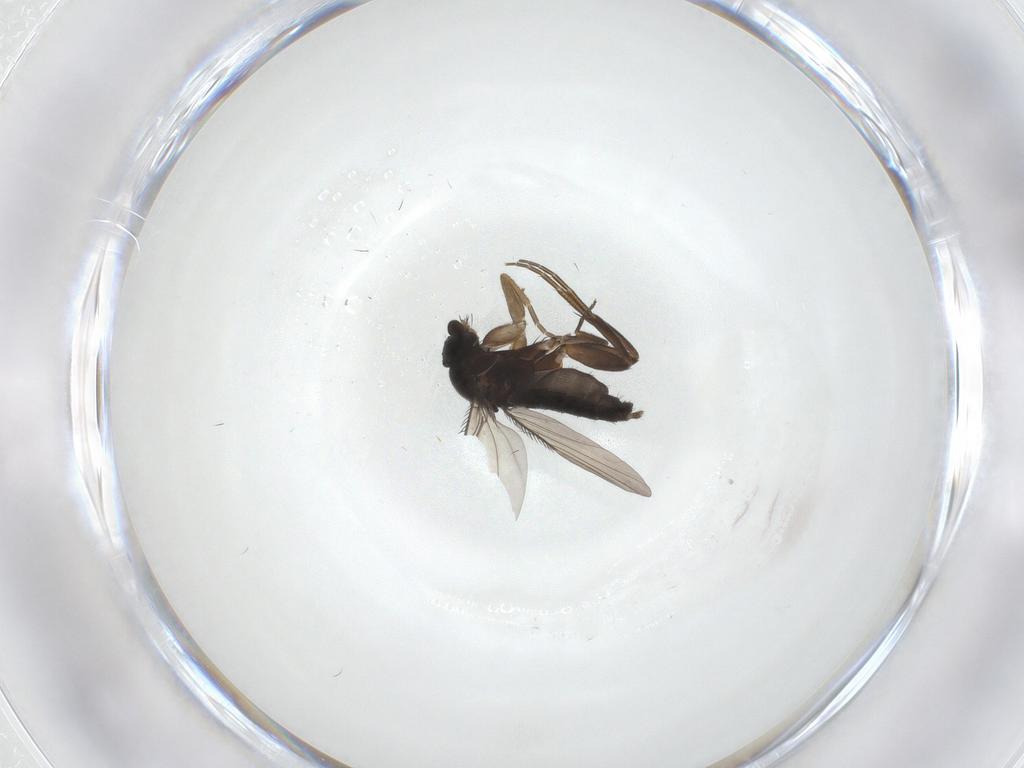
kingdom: Animalia
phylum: Arthropoda
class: Insecta
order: Diptera
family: Phoridae
